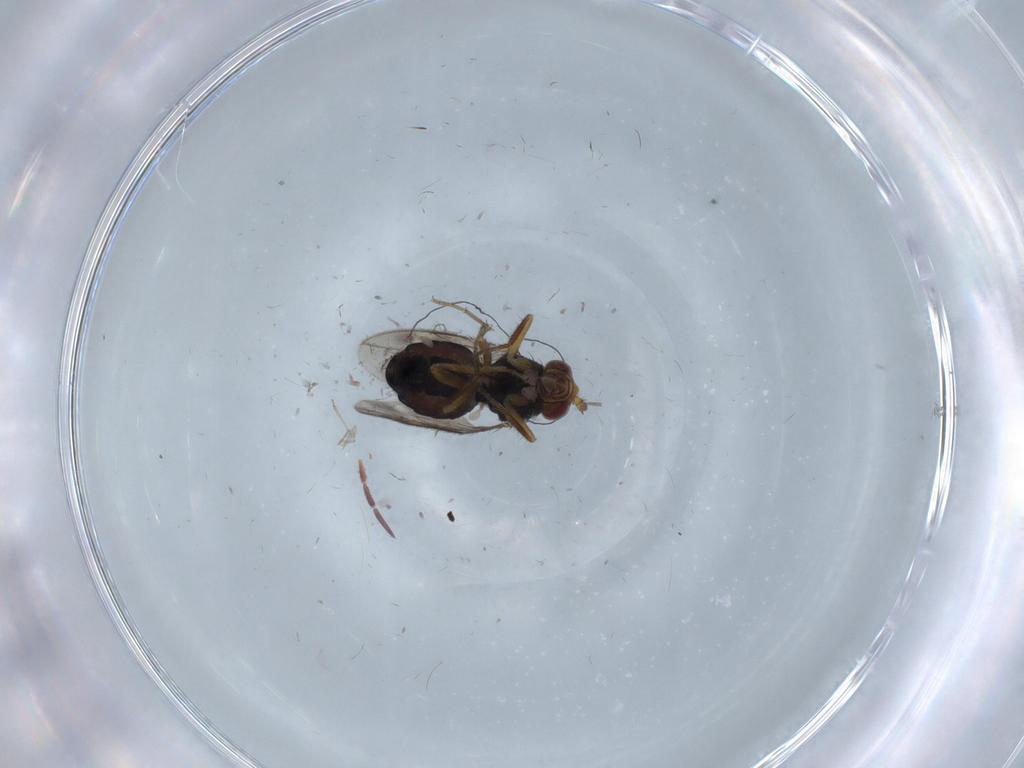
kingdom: Animalia
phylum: Arthropoda
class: Insecta
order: Diptera
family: Sphaeroceridae
